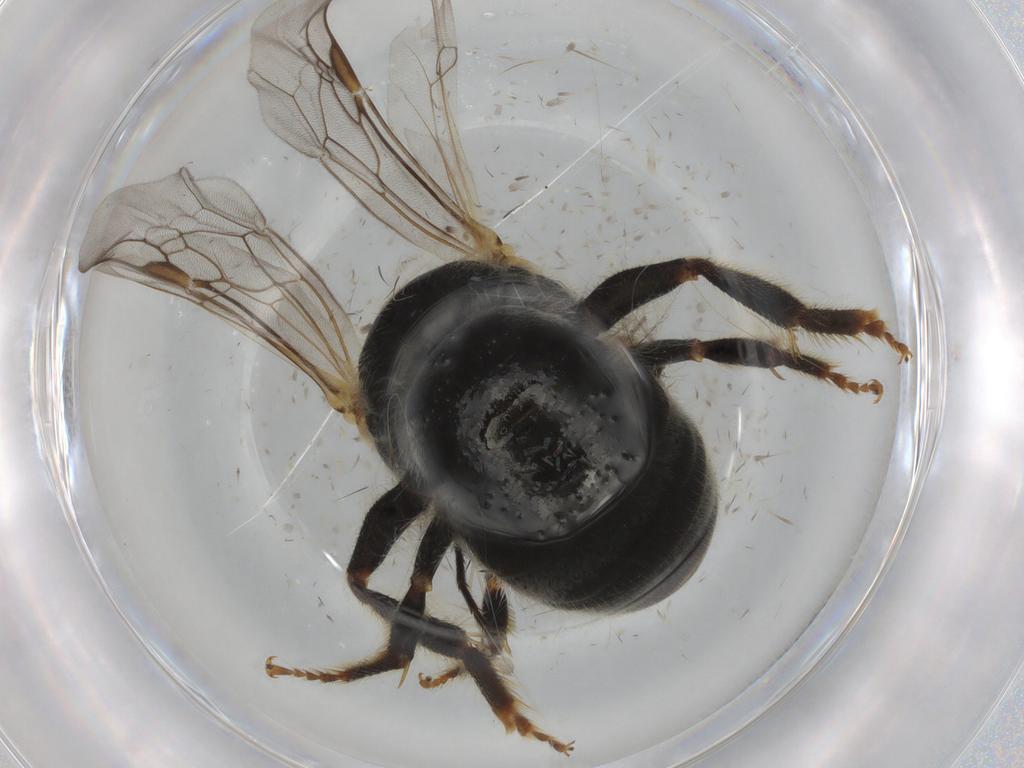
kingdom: Animalia
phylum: Arthropoda
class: Insecta
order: Hymenoptera
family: Halictidae
